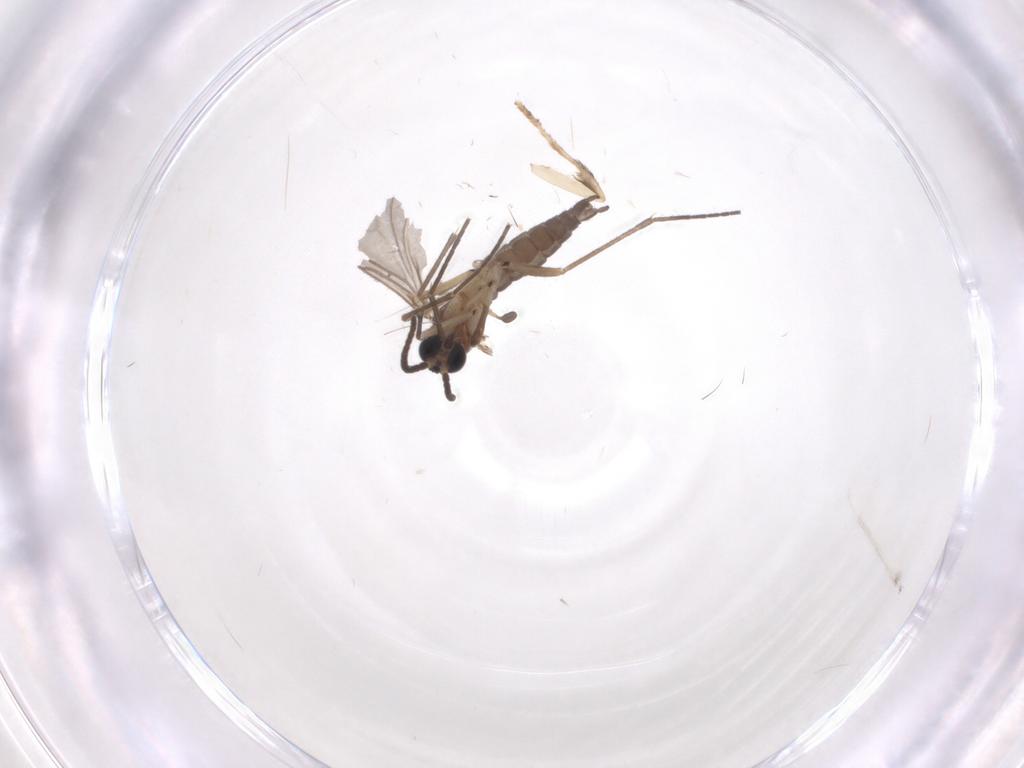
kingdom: Animalia
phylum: Arthropoda
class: Insecta
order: Diptera
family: Sciaridae
